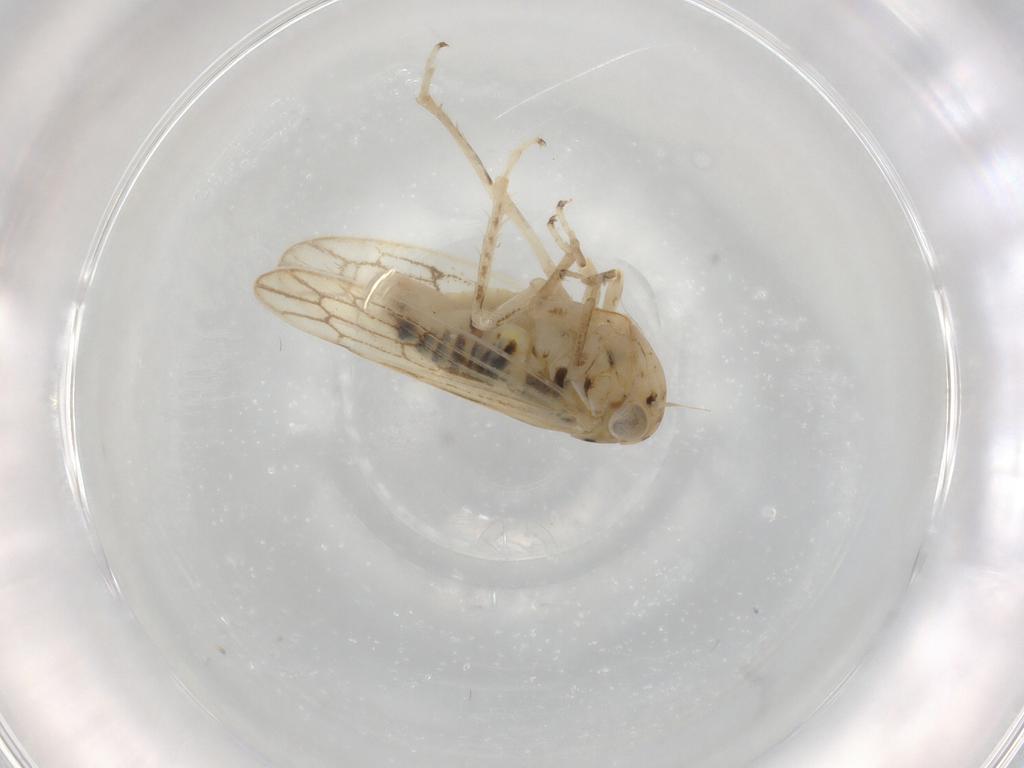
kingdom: Animalia
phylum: Arthropoda
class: Insecta
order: Hemiptera
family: Cicadellidae
